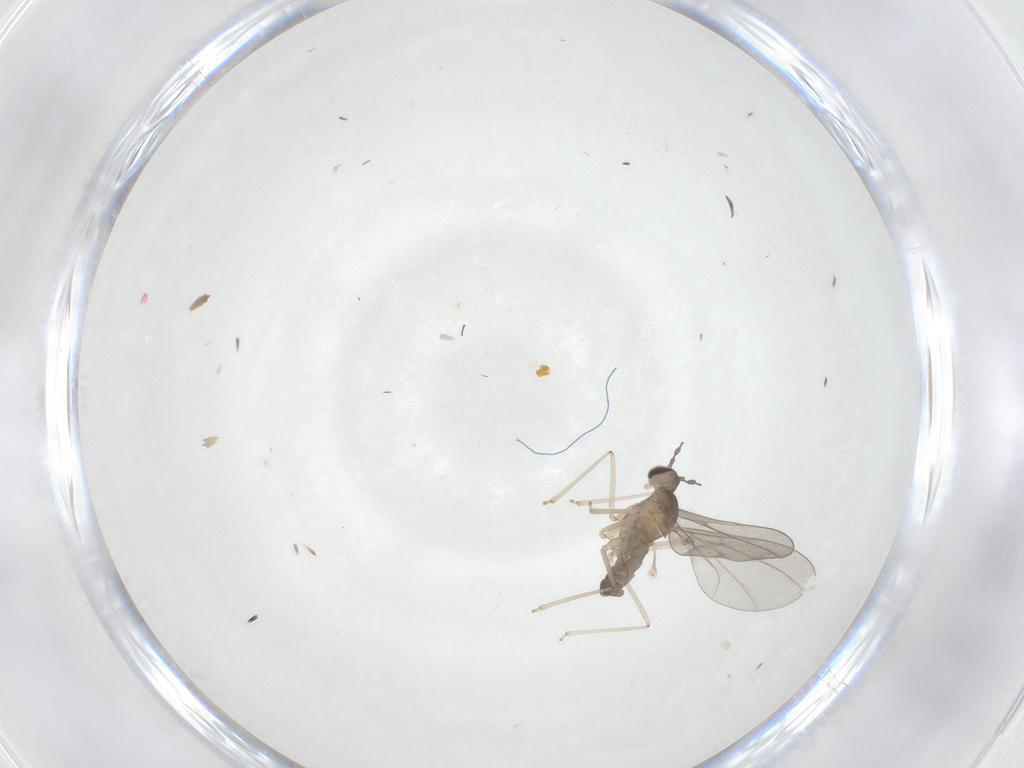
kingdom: Animalia
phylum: Arthropoda
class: Insecta
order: Diptera
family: Cecidomyiidae
